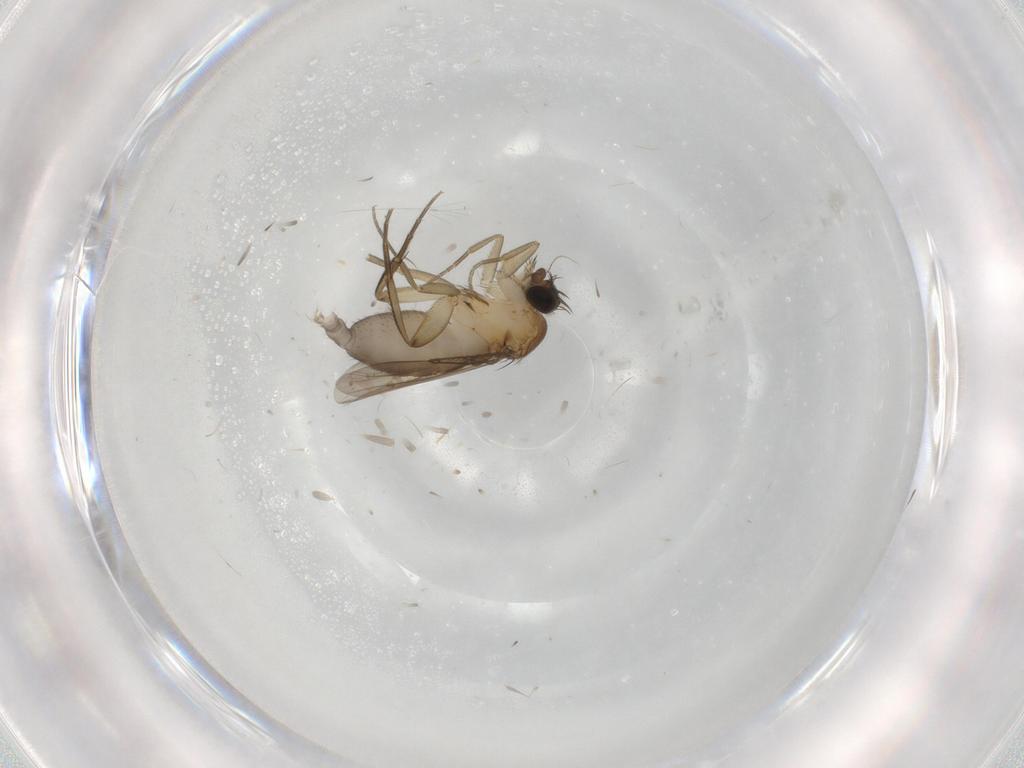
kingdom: Animalia
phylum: Arthropoda
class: Insecta
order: Diptera
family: Phoridae
